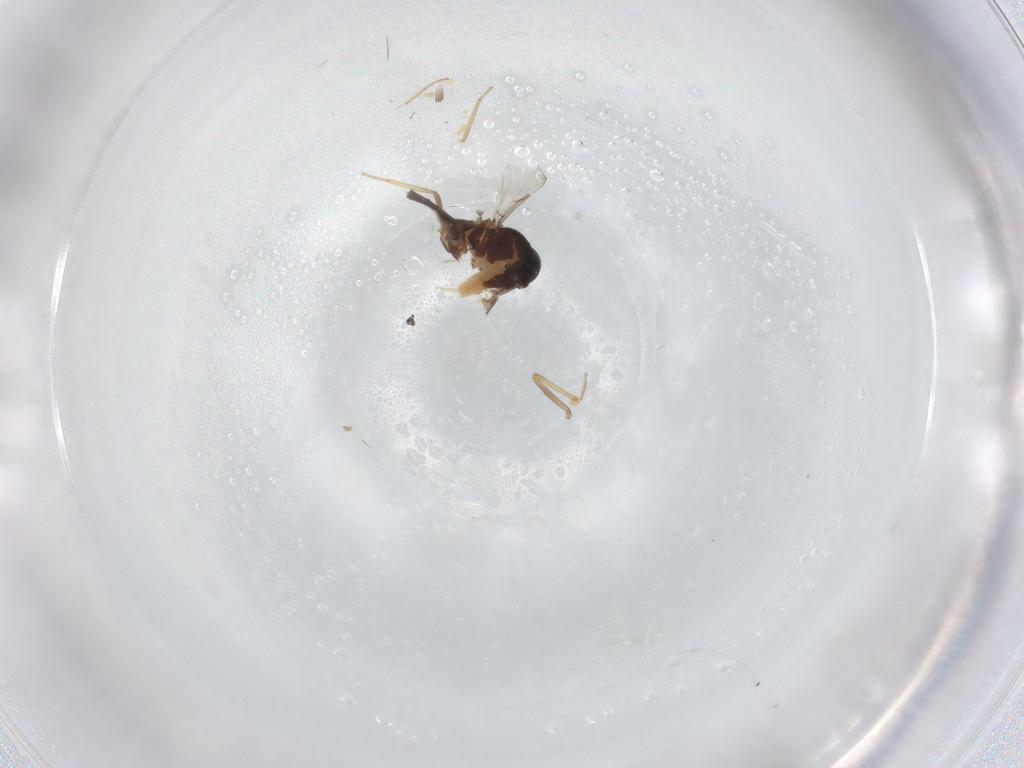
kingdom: Animalia
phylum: Arthropoda
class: Insecta
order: Diptera
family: Ceratopogonidae
